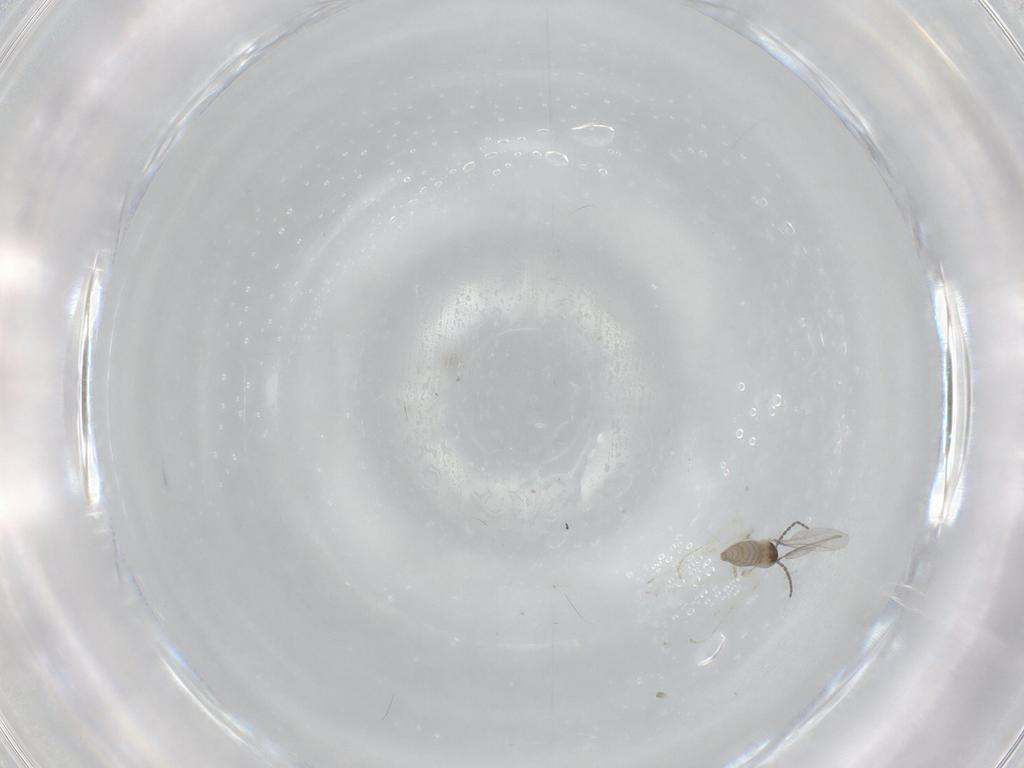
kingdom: Animalia
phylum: Arthropoda
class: Insecta
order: Diptera
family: Cecidomyiidae
